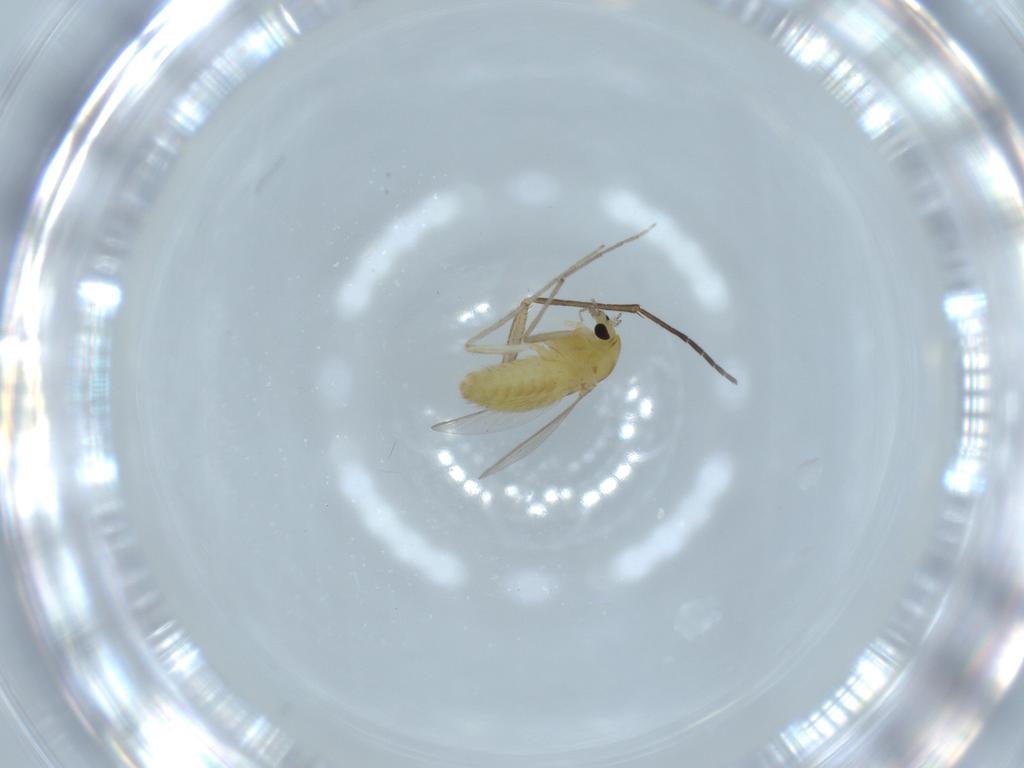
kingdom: Animalia
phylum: Arthropoda
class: Insecta
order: Diptera
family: Chironomidae
